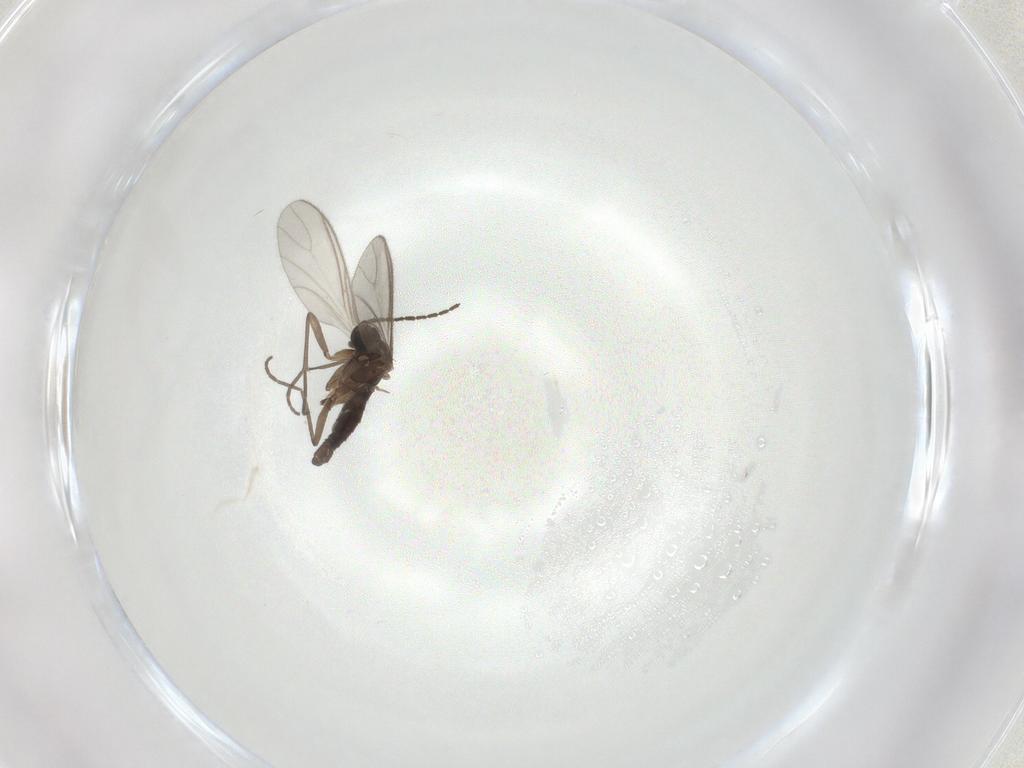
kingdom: Animalia
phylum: Arthropoda
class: Insecta
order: Diptera
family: Sciaridae
